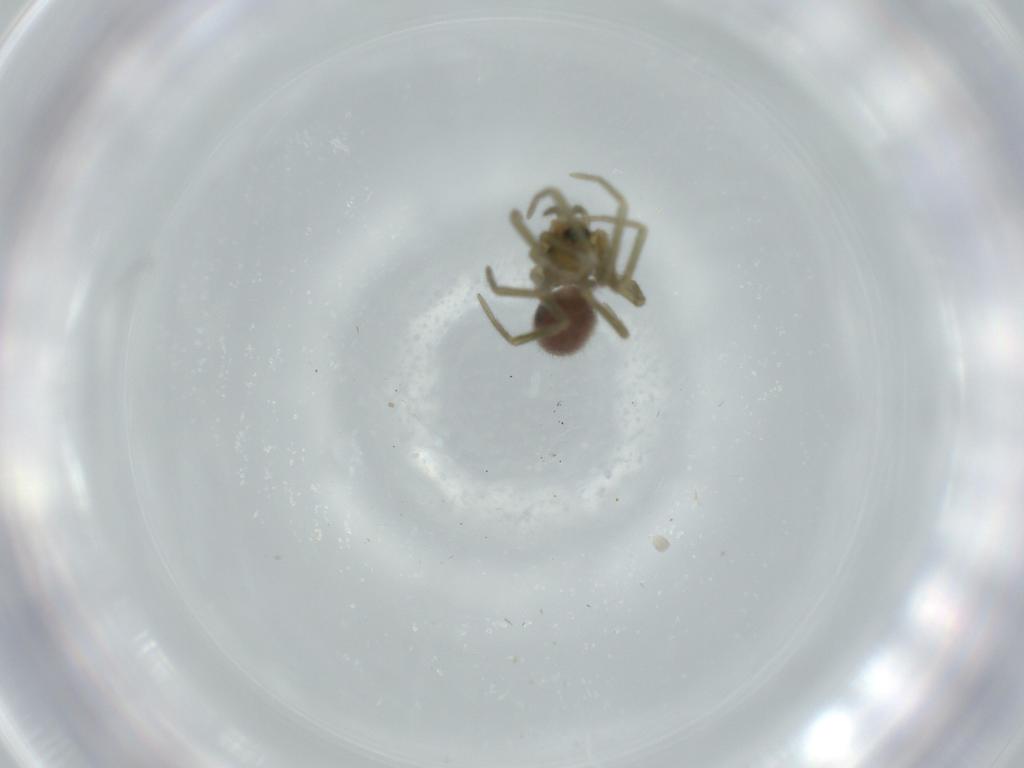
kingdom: Animalia
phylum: Arthropoda
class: Arachnida
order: Araneae
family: Linyphiidae
